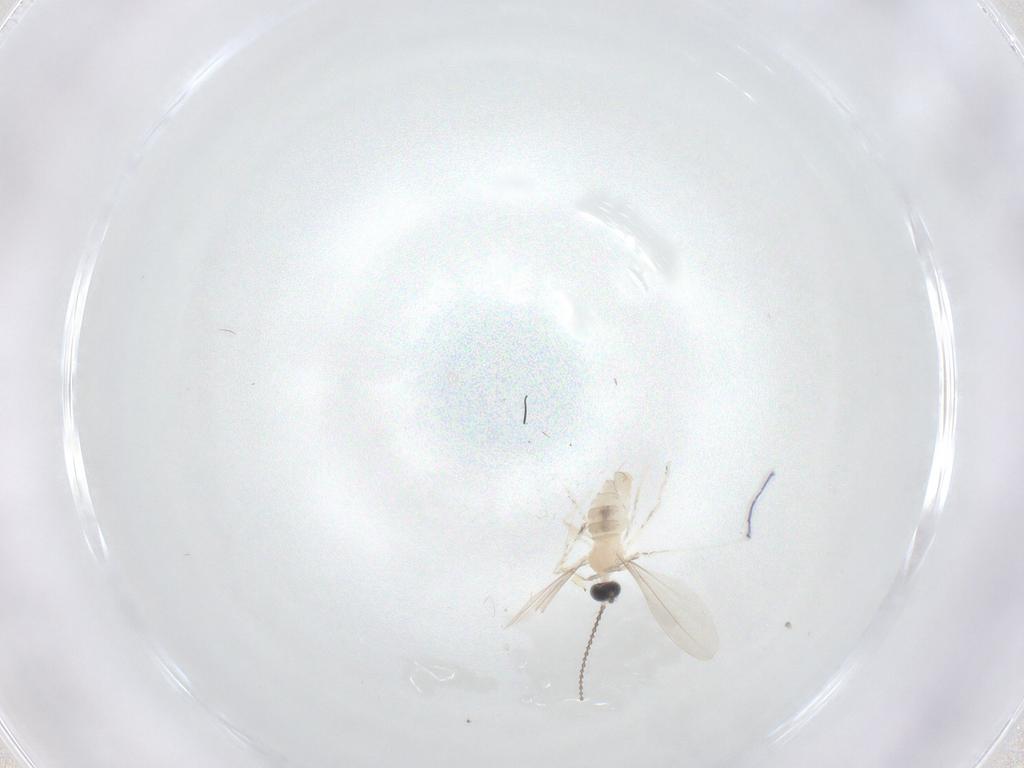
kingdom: Animalia
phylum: Arthropoda
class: Insecta
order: Diptera
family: Cecidomyiidae
